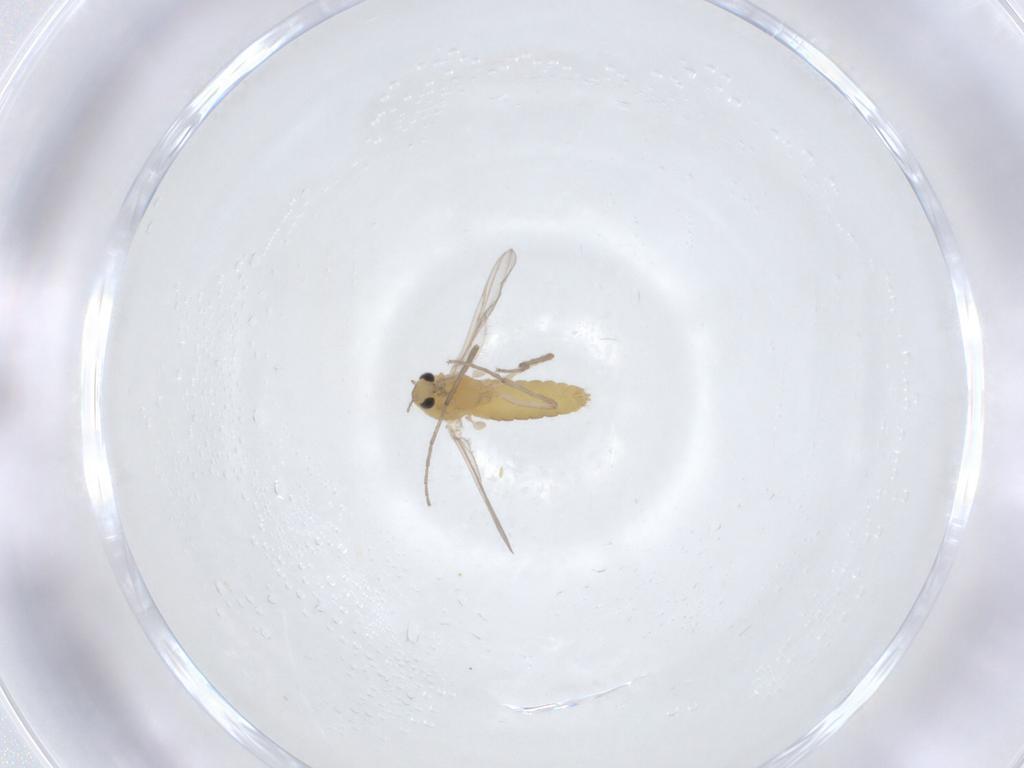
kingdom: Animalia
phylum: Arthropoda
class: Insecta
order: Diptera
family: Chironomidae
